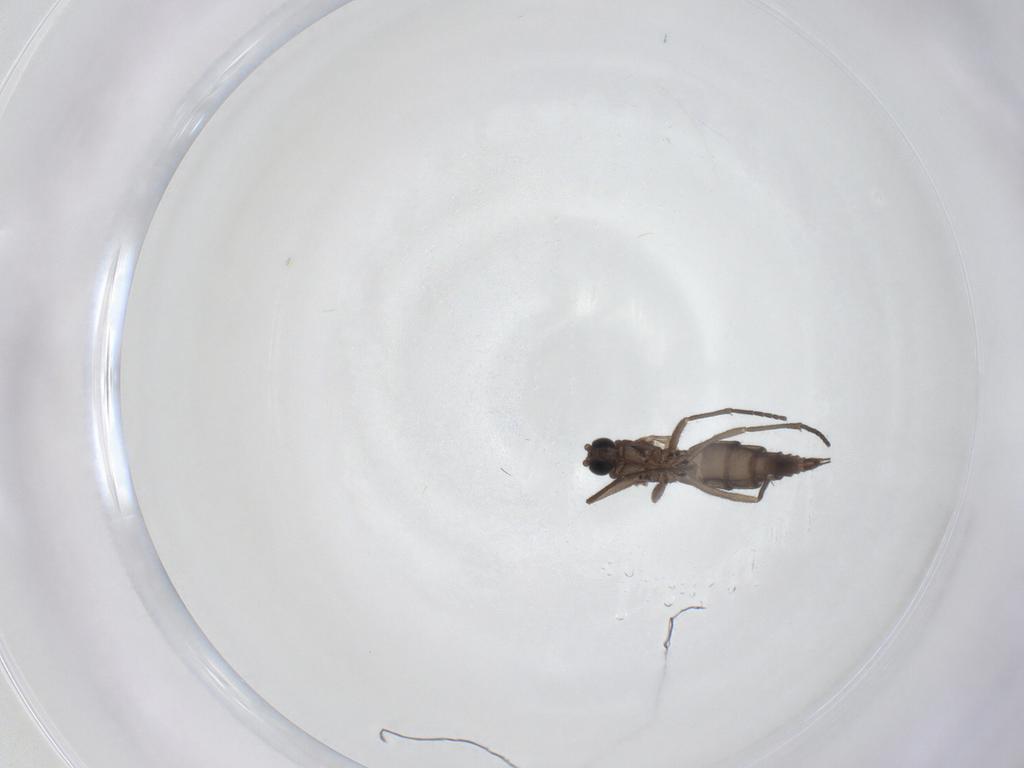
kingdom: Animalia
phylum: Arthropoda
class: Insecta
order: Diptera
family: Sciaridae
